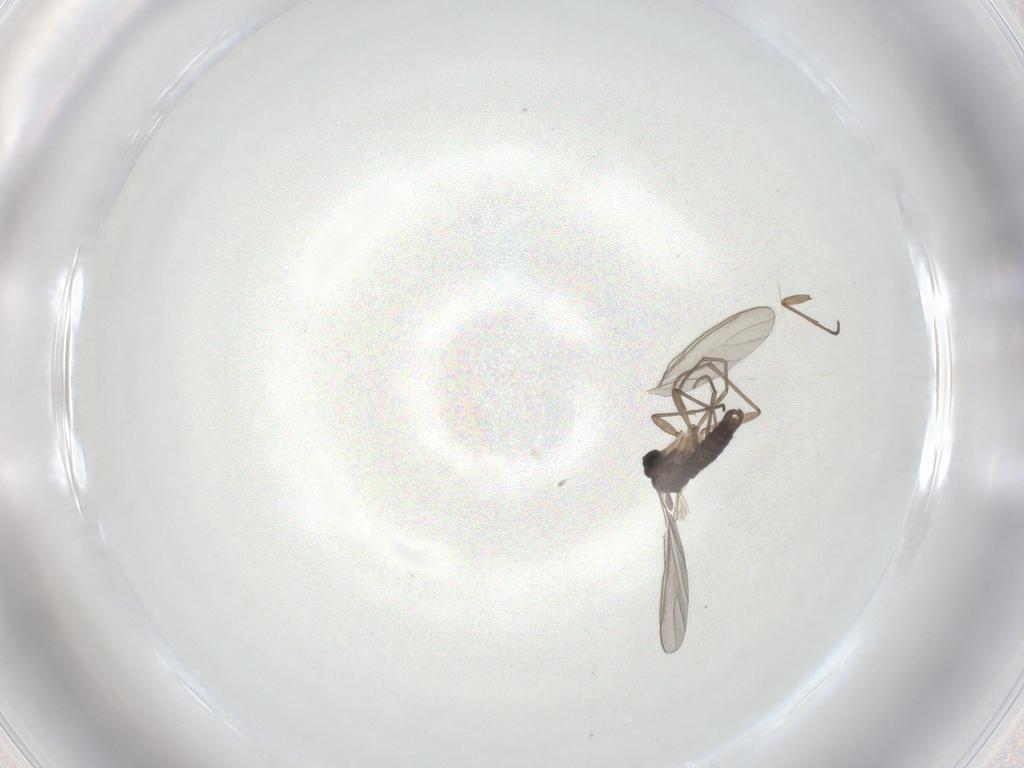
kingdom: Animalia
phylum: Arthropoda
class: Insecta
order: Diptera
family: Sciaridae
